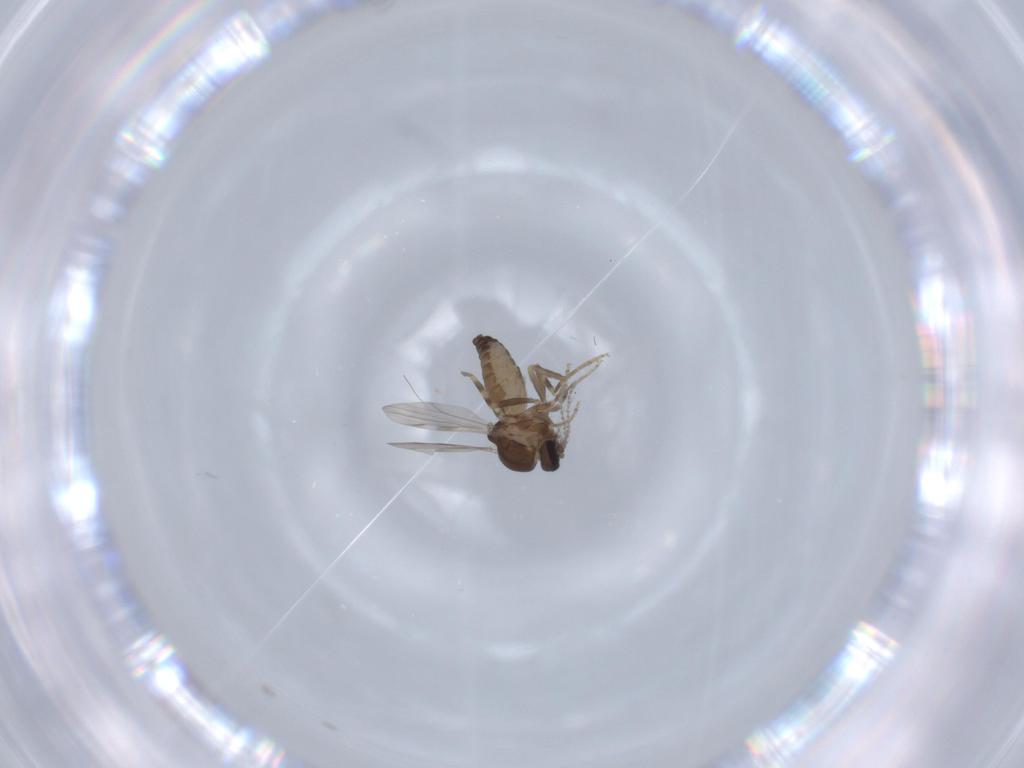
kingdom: Animalia
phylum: Arthropoda
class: Insecta
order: Diptera
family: Ceratopogonidae
